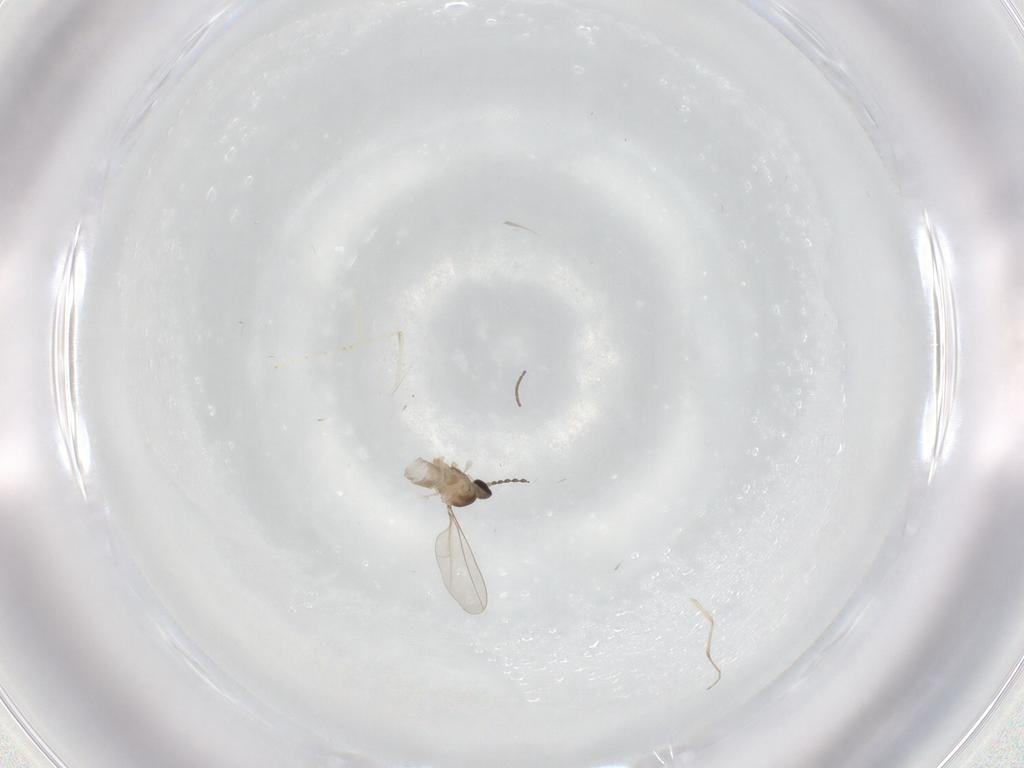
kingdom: Animalia
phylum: Arthropoda
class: Insecta
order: Diptera
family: Cecidomyiidae
